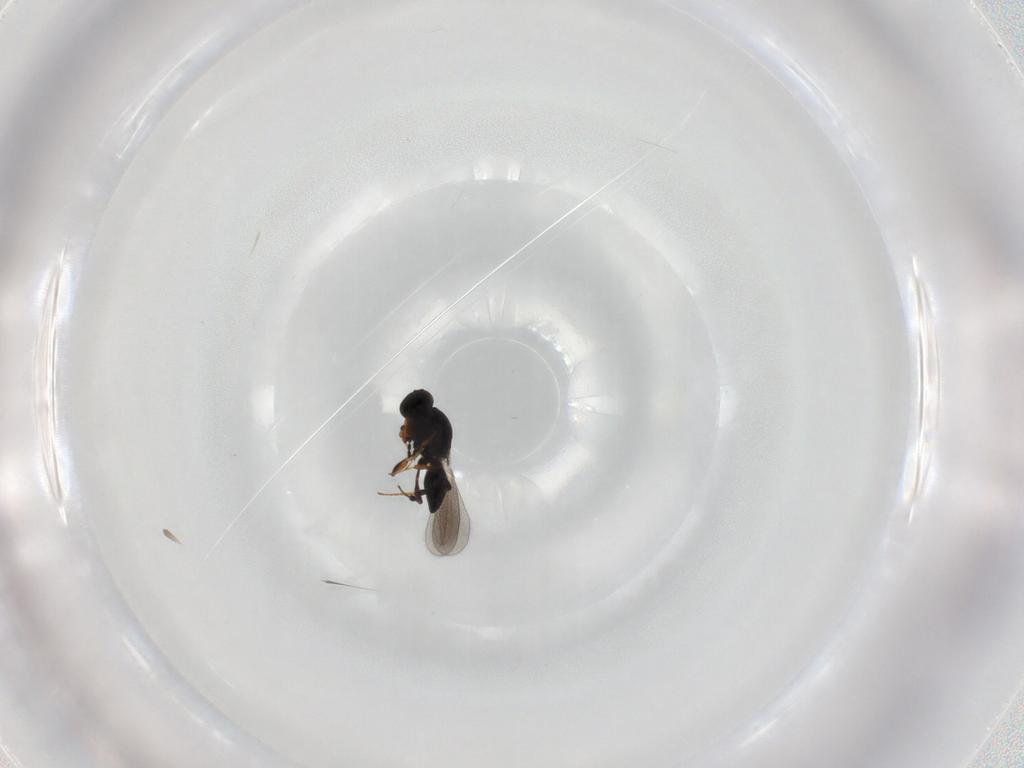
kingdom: Animalia
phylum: Arthropoda
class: Insecta
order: Hymenoptera
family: Platygastridae
